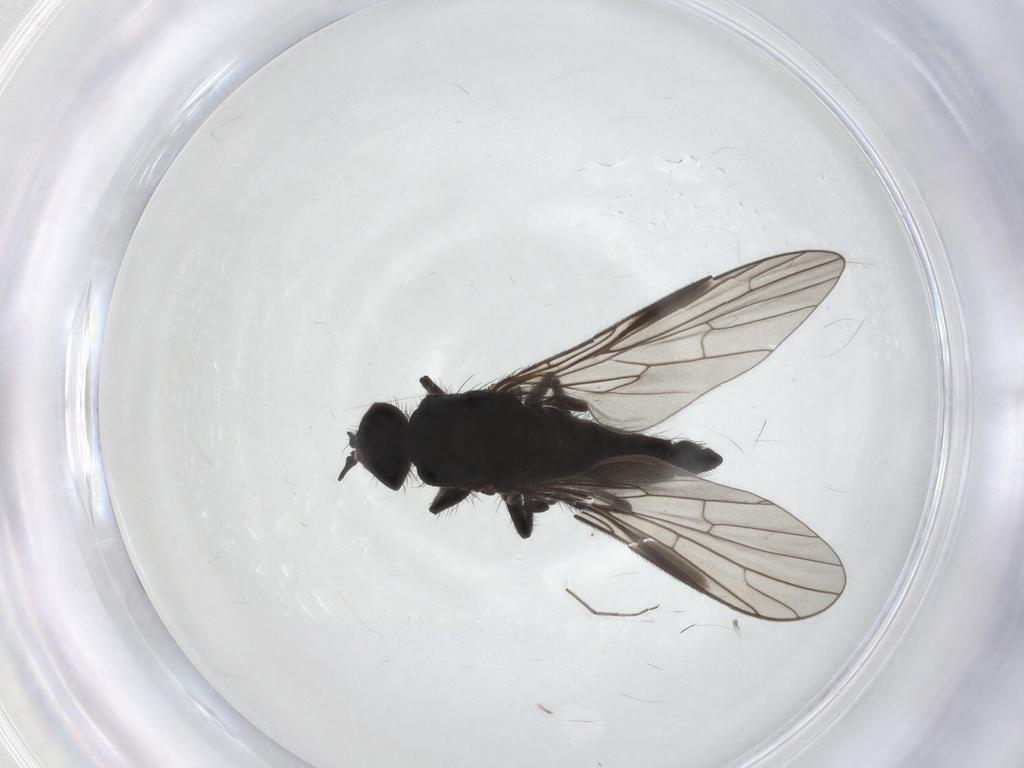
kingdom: Animalia
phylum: Arthropoda
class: Insecta
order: Diptera
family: Empididae
